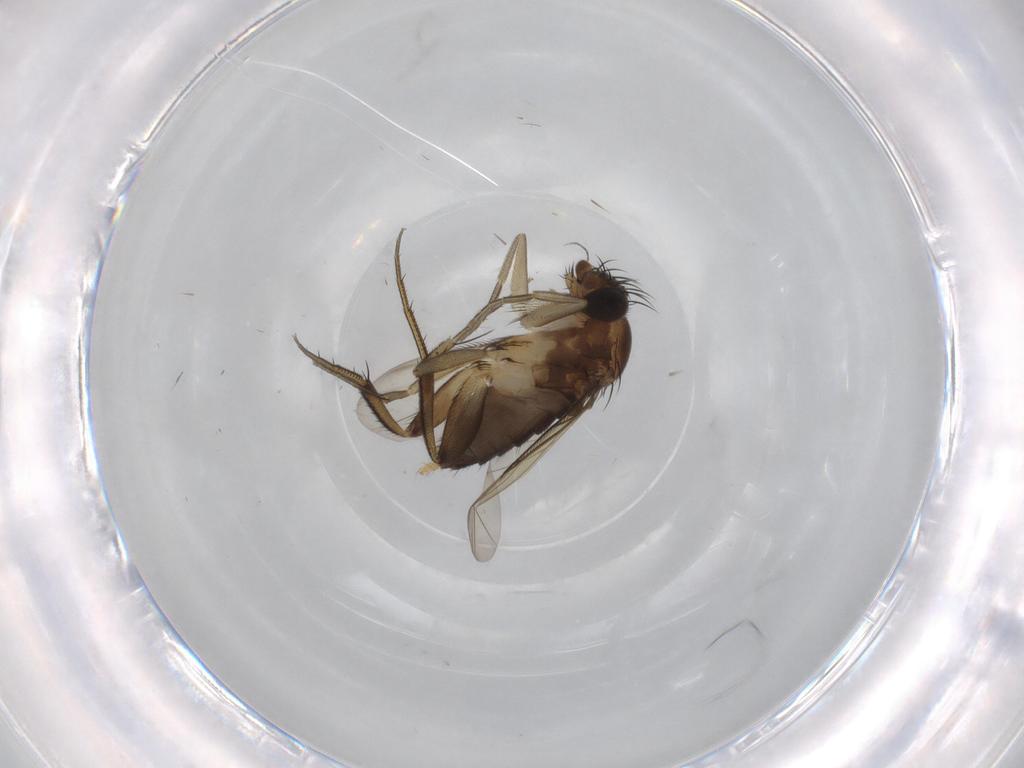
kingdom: Animalia
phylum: Arthropoda
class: Insecta
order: Diptera
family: Phoridae
